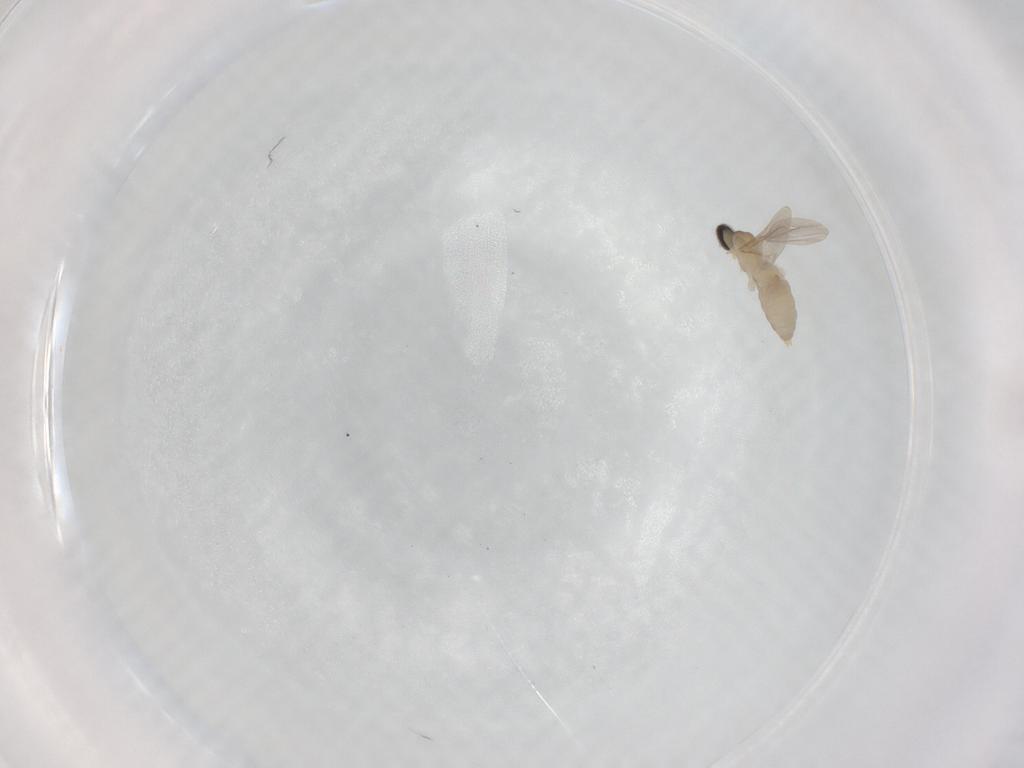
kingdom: Animalia
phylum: Arthropoda
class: Insecta
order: Diptera
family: Cecidomyiidae
